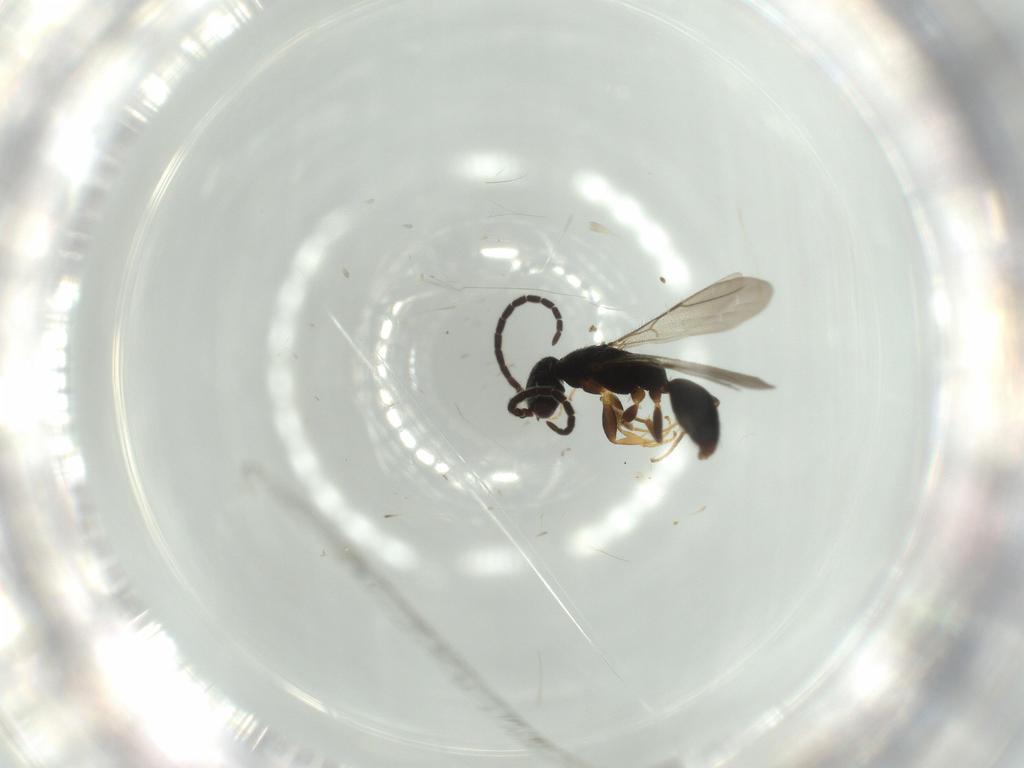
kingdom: Animalia
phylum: Arthropoda
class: Insecta
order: Hymenoptera
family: Bethylidae
